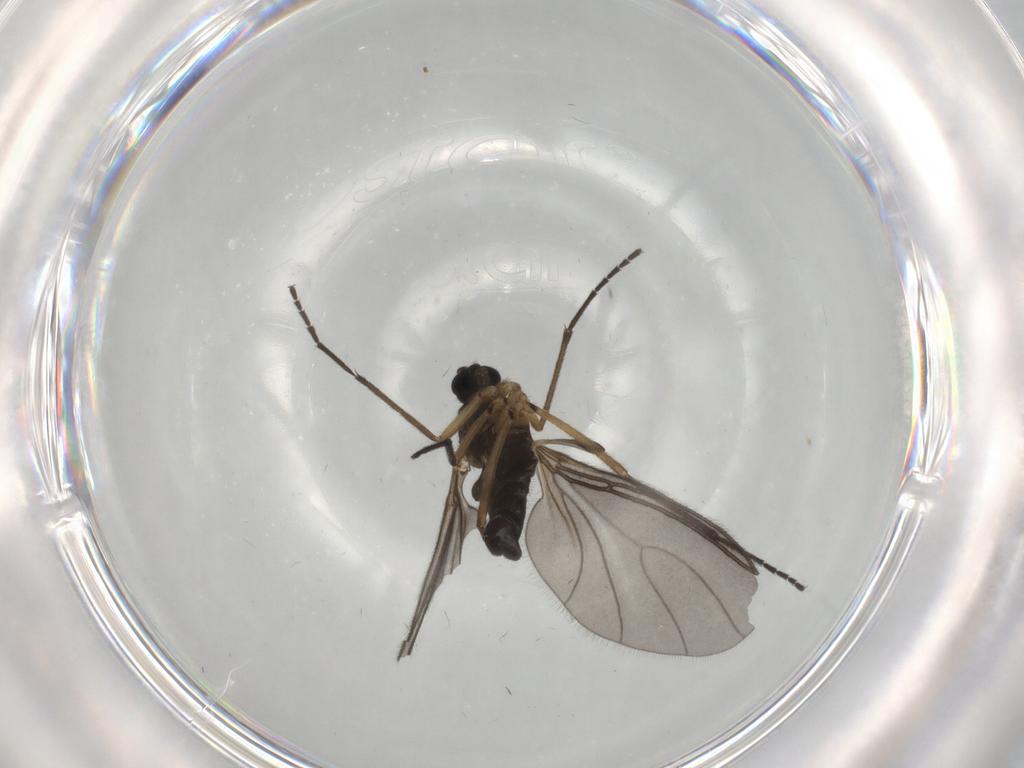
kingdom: Animalia
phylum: Arthropoda
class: Insecta
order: Diptera
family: Sciaridae
